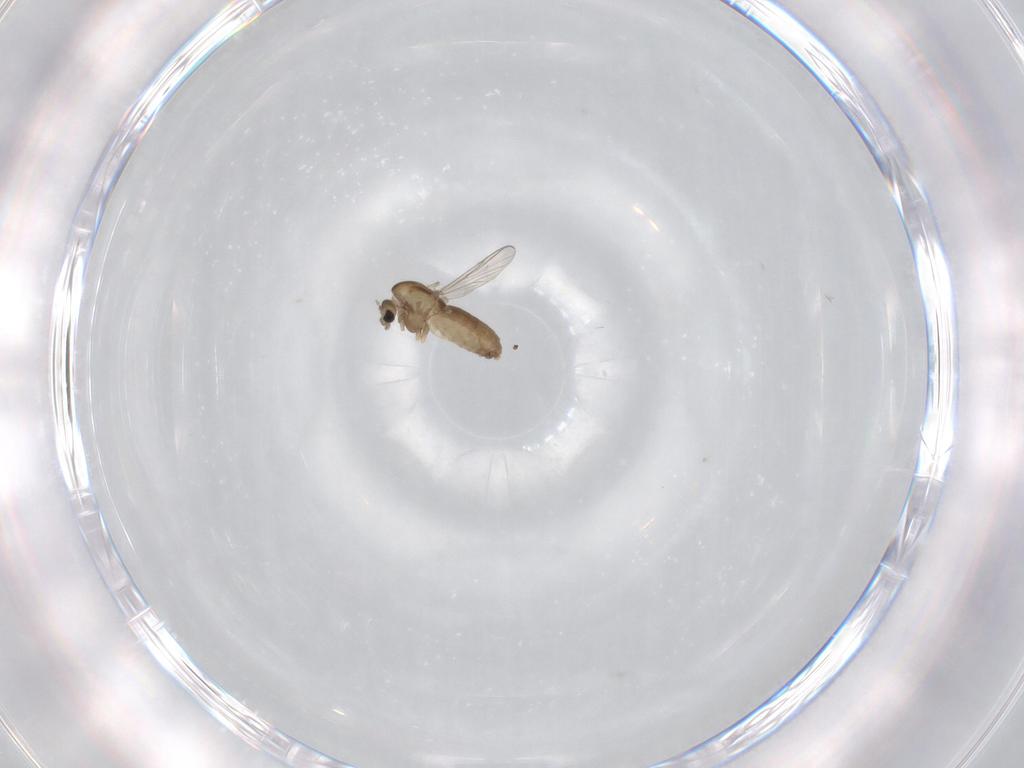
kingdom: Animalia
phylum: Arthropoda
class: Insecta
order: Diptera
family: Chironomidae
